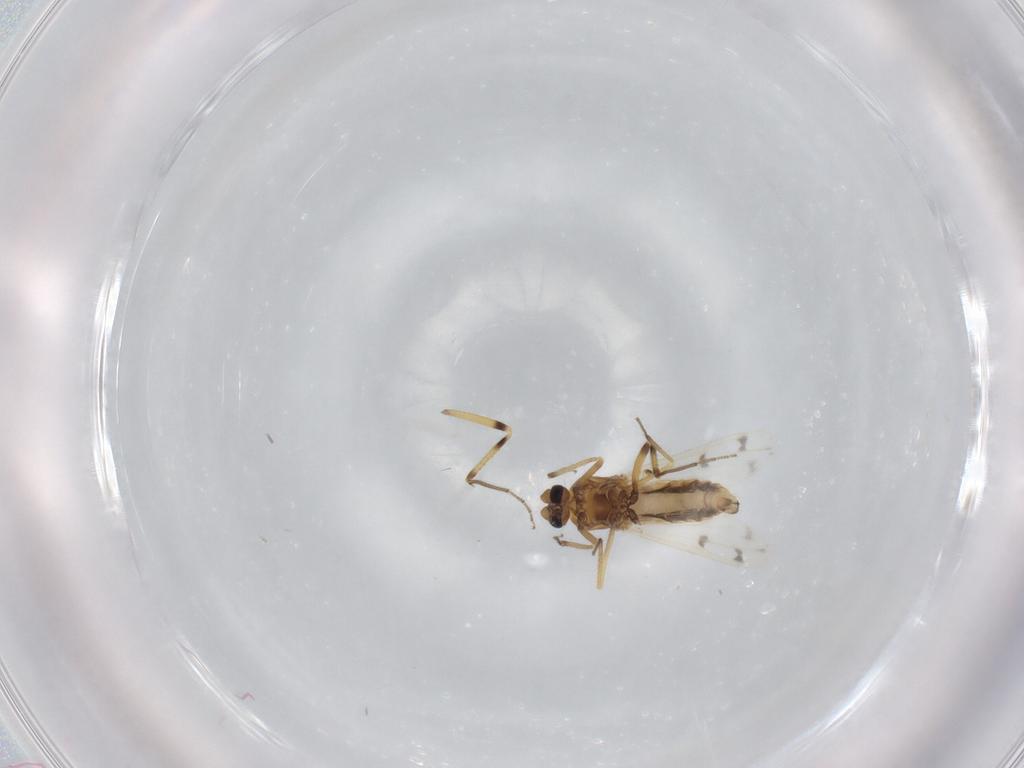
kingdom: Animalia
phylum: Arthropoda
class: Insecta
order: Diptera
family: Ceratopogonidae
